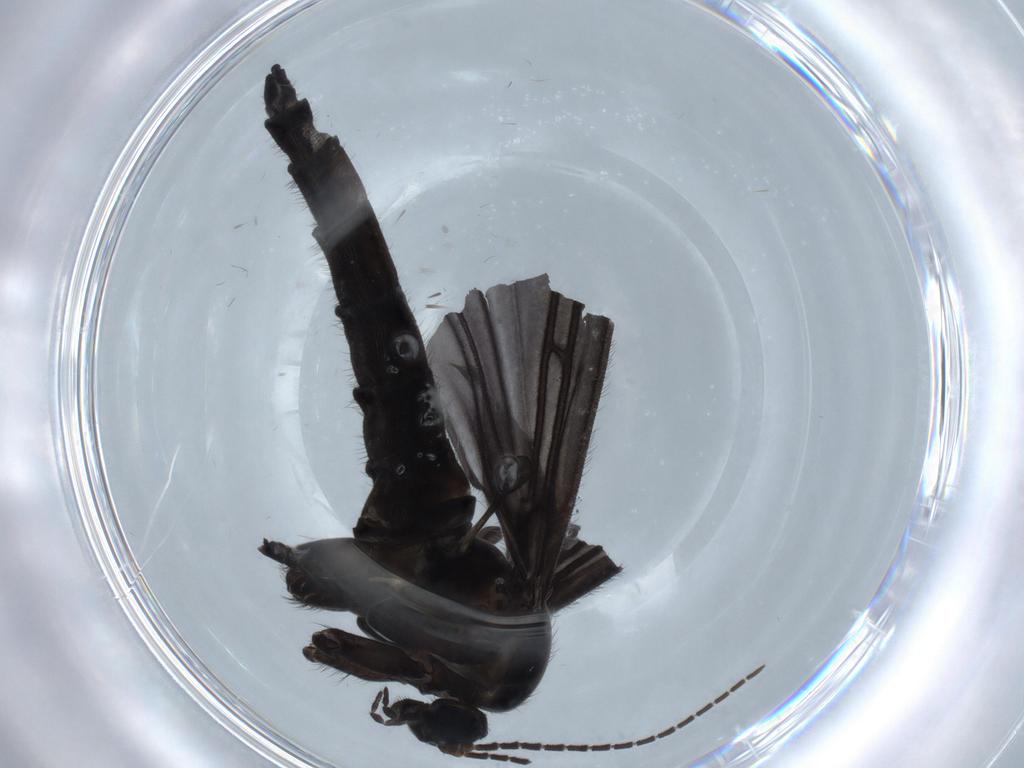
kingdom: Animalia
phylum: Arthropoda
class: Insecta
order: Diptera
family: Sciaridae
